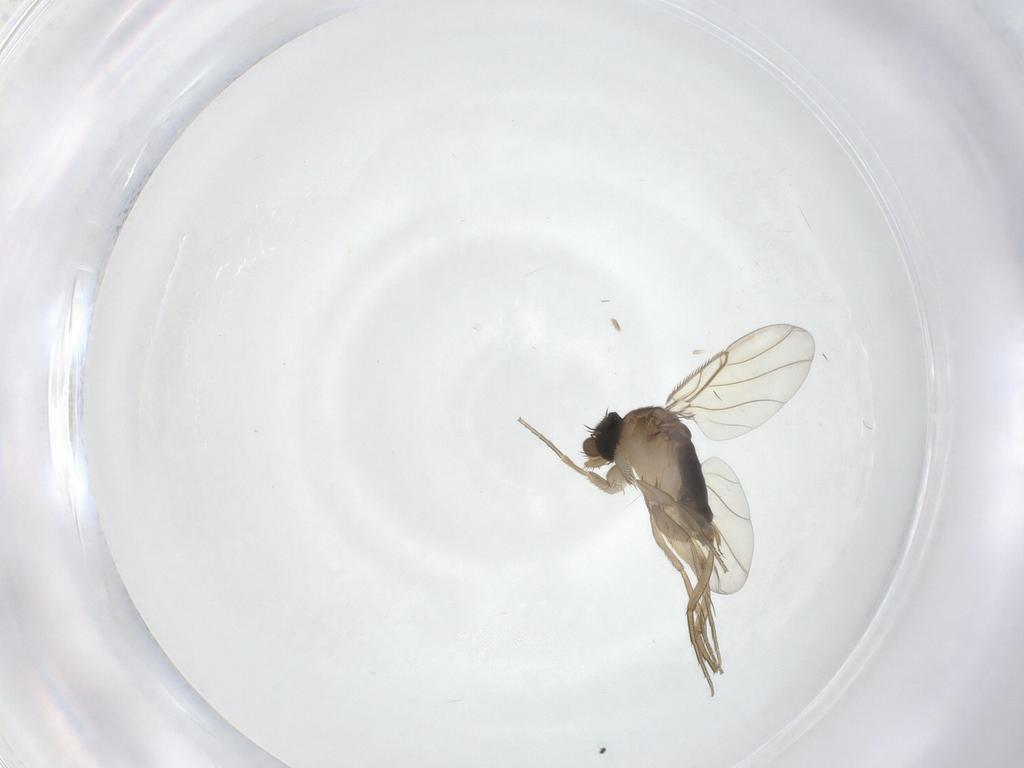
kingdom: Animalia
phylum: Arthropoda
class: Insecta
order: Diptera
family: Phoridae
